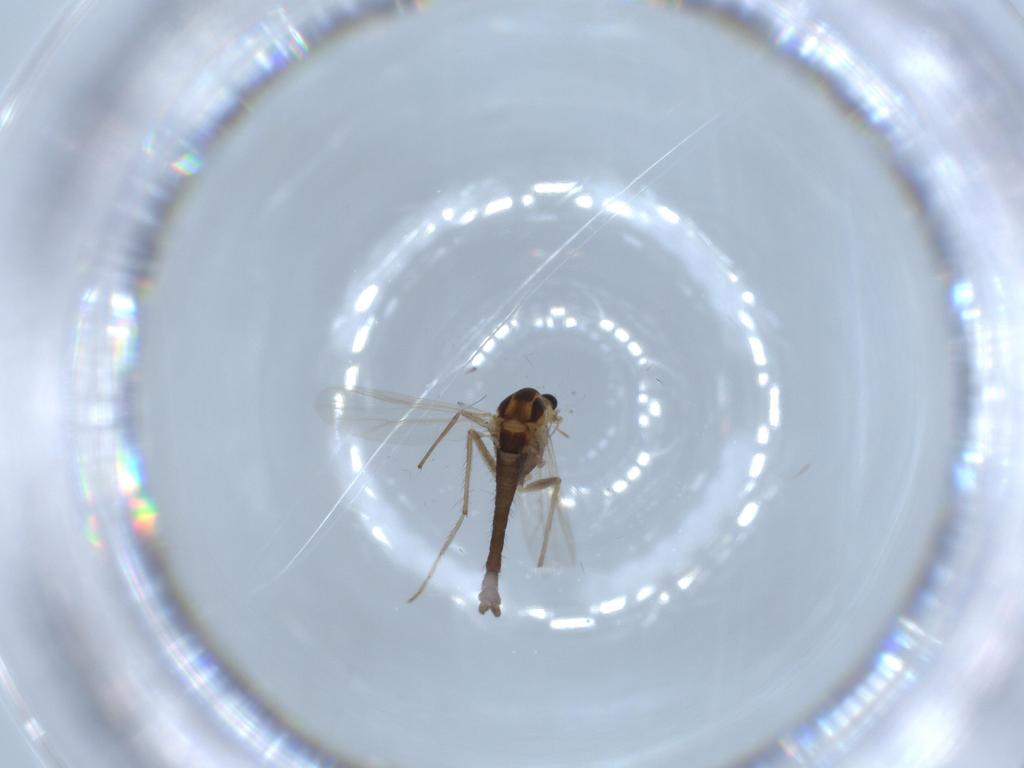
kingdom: Animalia
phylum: Arthropoda
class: Insecta
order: Diptera
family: Chironomidae
